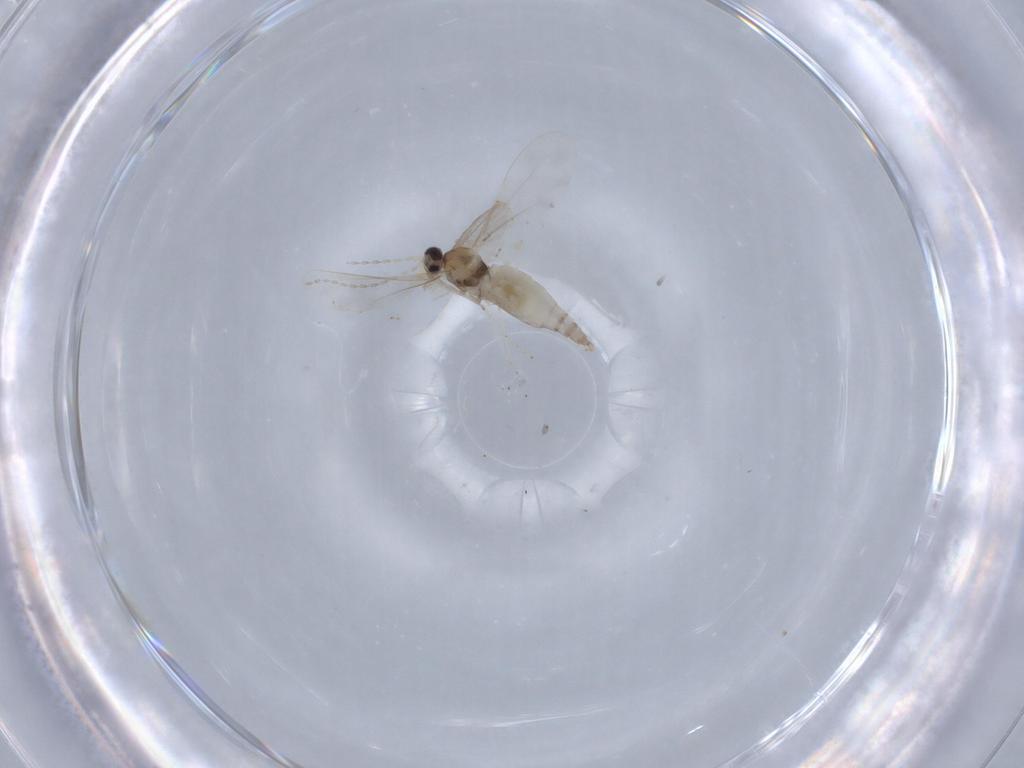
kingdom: Animalia
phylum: Arthropoda
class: Insecta
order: Diptera
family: Cecidomyiidae
